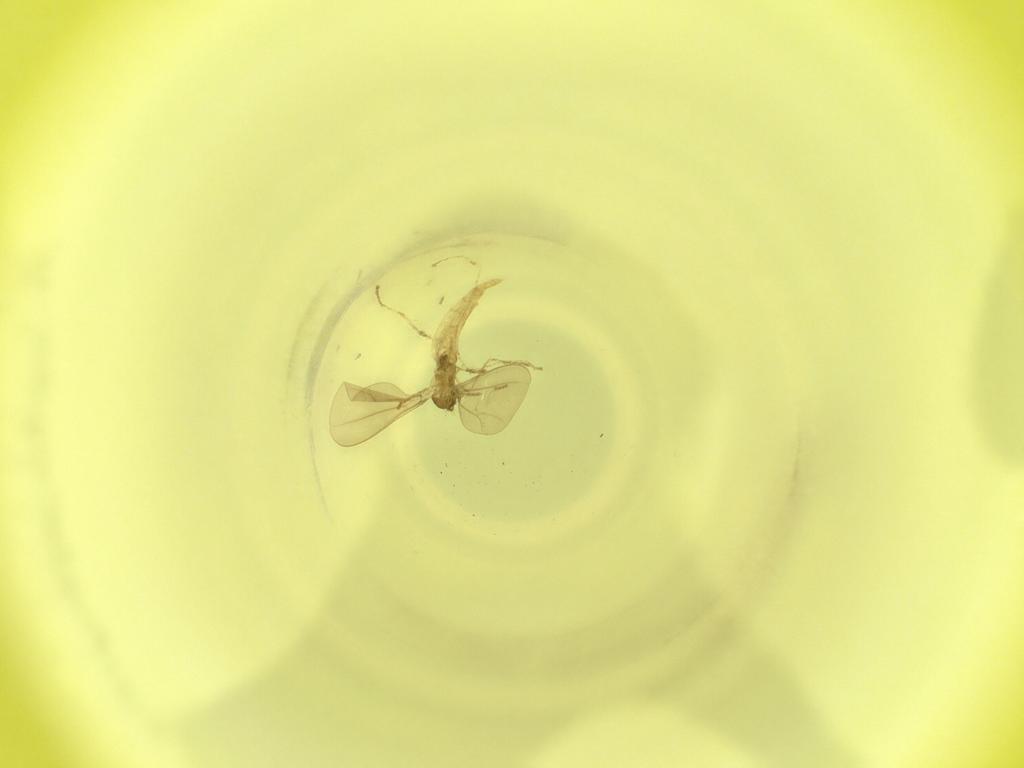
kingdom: Animalia
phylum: Arthropoda
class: Insecta
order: Diptera
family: Cecidomyiidae
